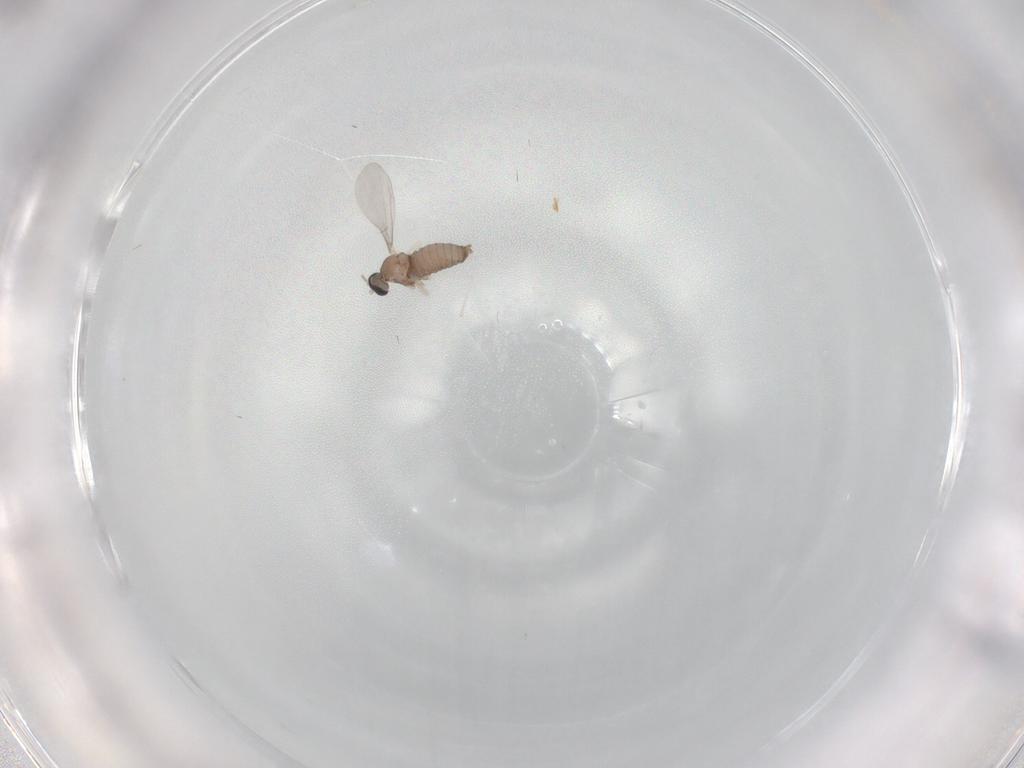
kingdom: Animalia
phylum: Arthropoda
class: Insecta
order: Diptera
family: Cecidomyiidae
